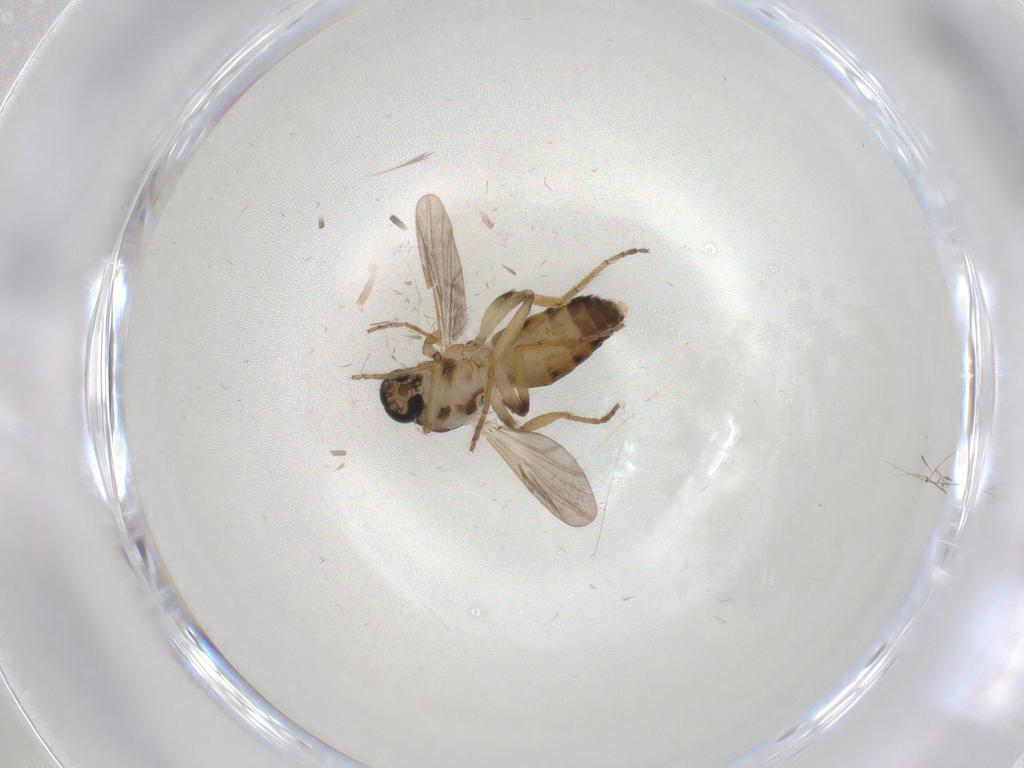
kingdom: Animalia
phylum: Arthropoda
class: Insecta
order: Diptera
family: Ceratopogonidae
